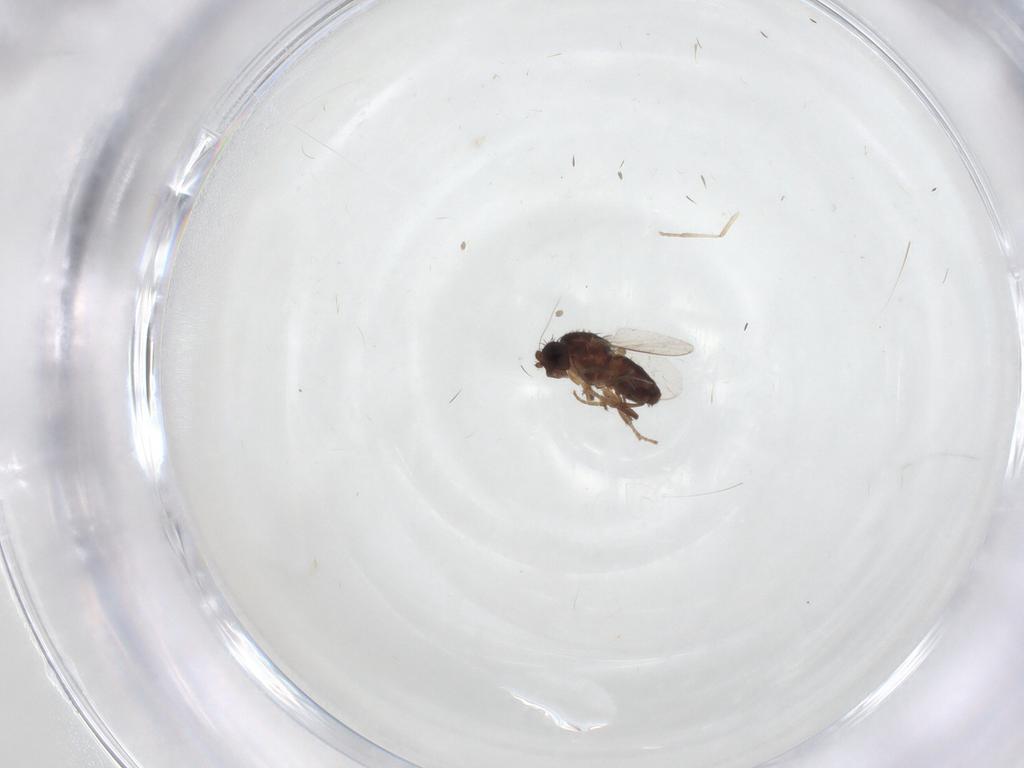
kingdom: Animalia
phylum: Arthropoda
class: Insecta
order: Diptera
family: Sphaeroceridae
